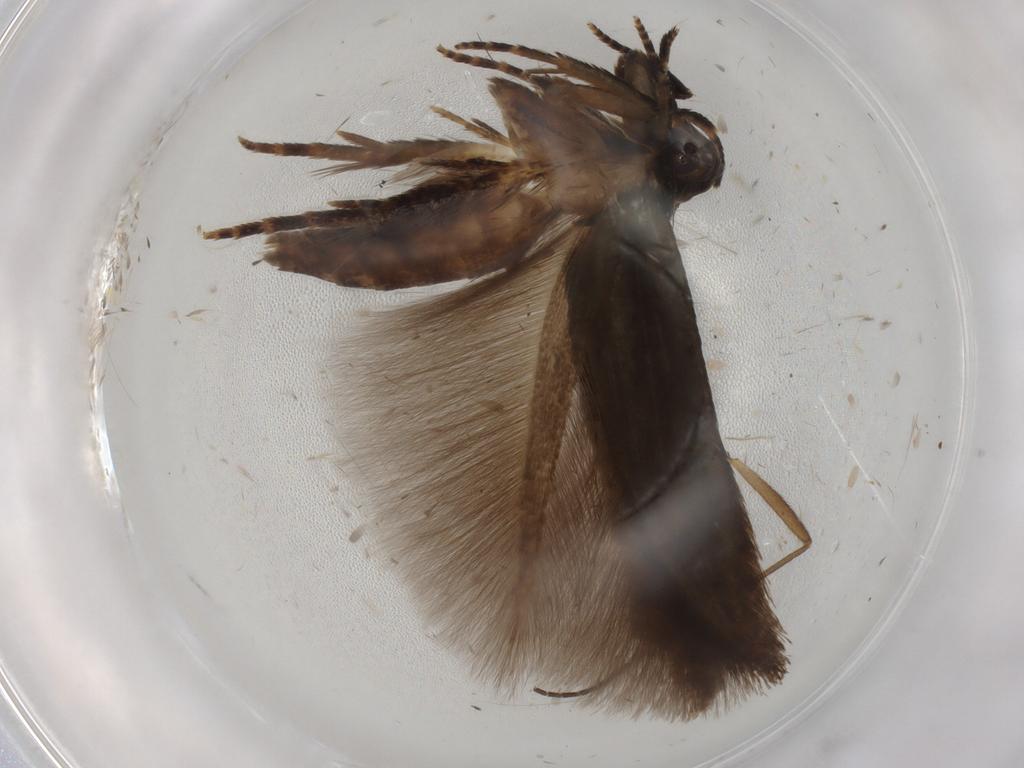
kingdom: Animalia
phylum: Arthropoda
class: Insecta
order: Lepidoptera
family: Cosmopterigidae
